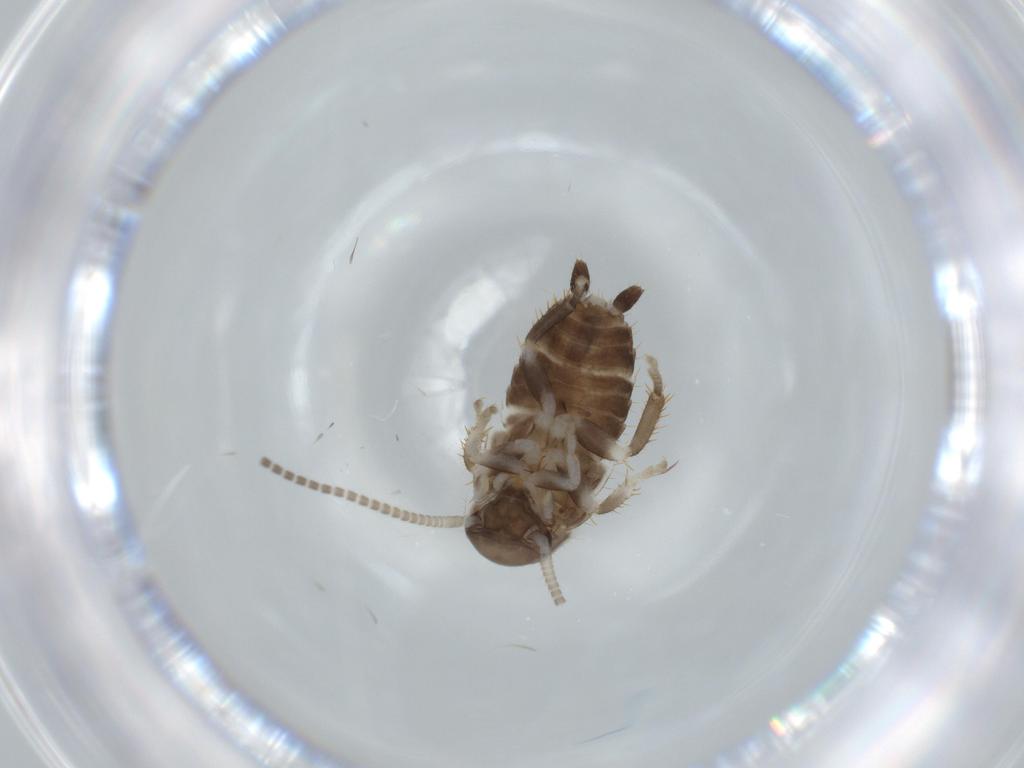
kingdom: Animalia
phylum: Arthropoda
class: Insecta
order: Blattodea
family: Ectobiidae
